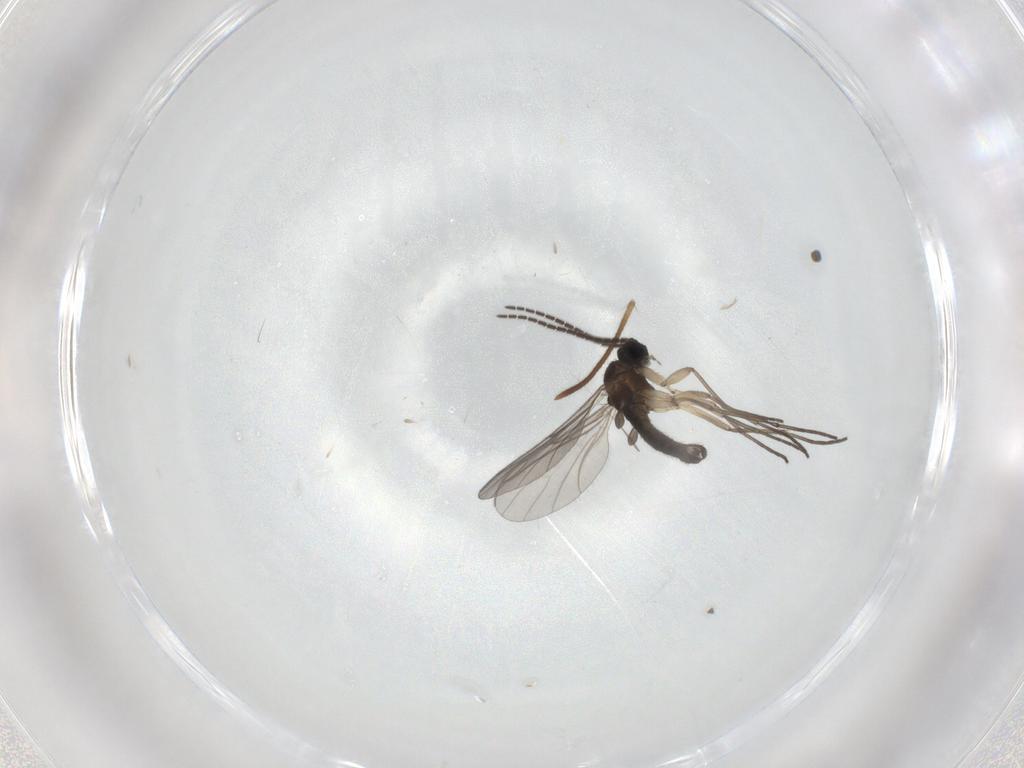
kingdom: Animalia
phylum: Arthropoda
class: Insecta
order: Diptera
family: Sciaridae
